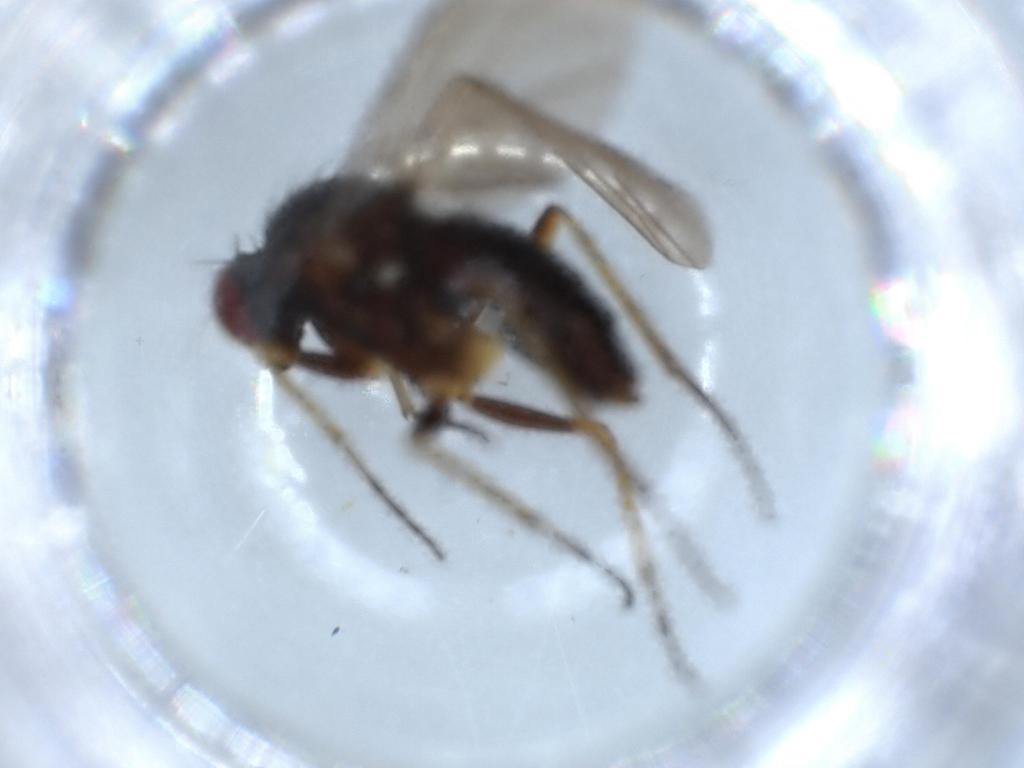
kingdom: Animalia
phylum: Arthropoda
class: Insecta
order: Diptera
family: Dolichopodidae
